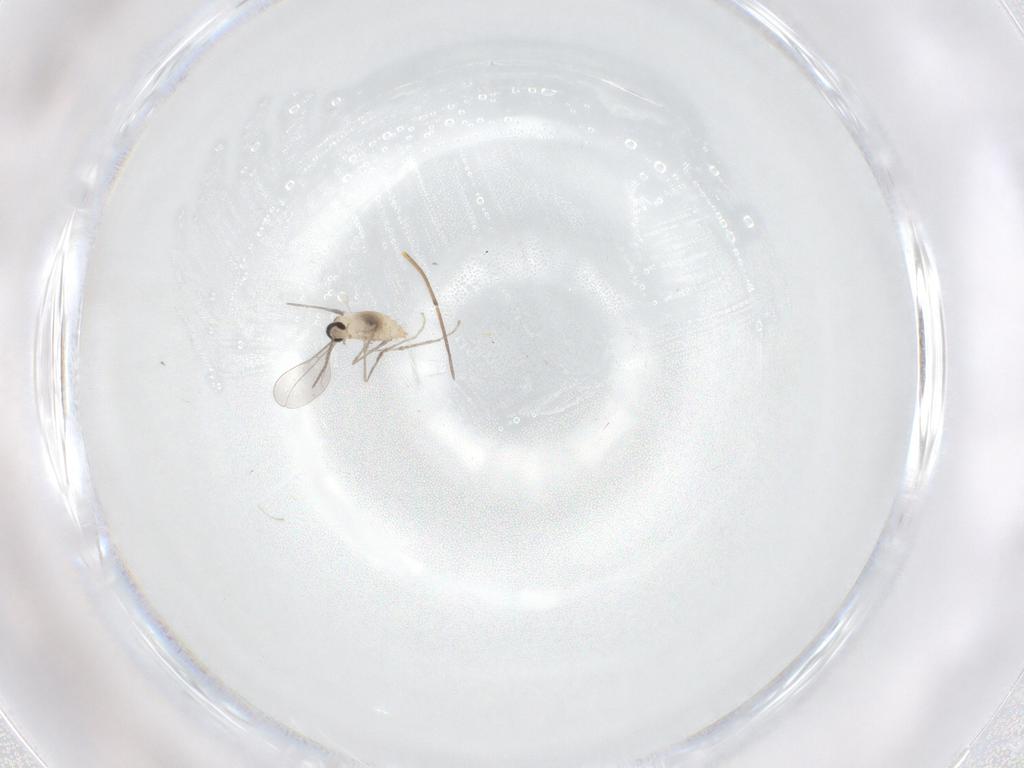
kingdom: Animalia
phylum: Arthropoda
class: Insecta
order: Diptera
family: Cecidomyiidae
